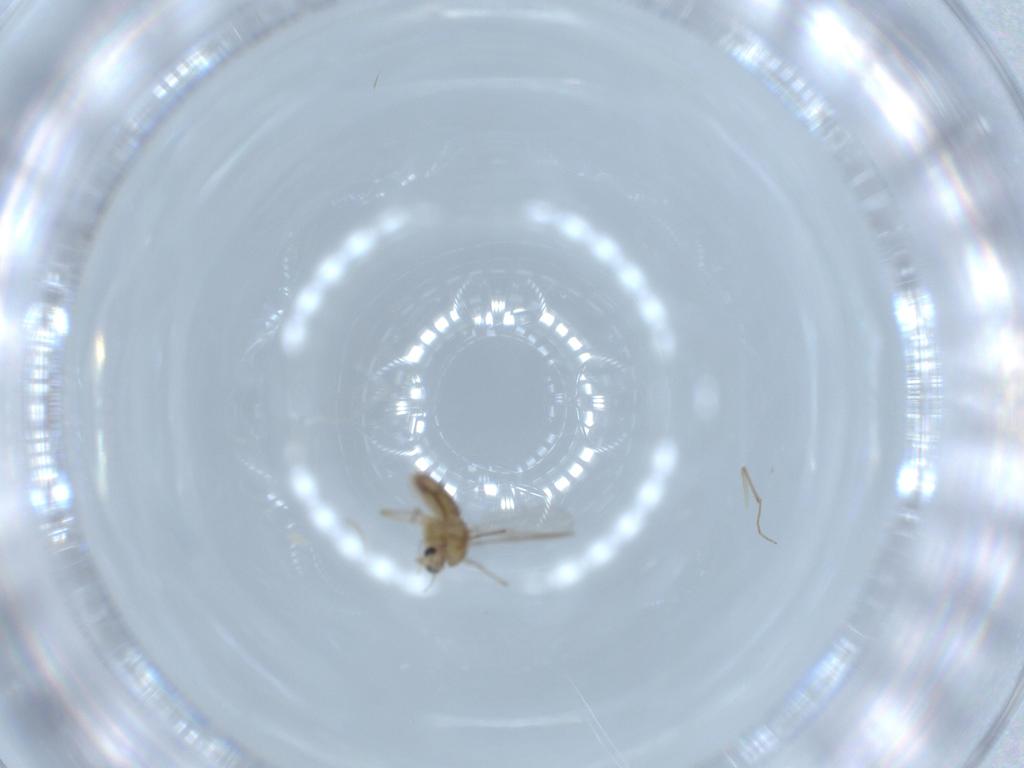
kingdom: Animalia
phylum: Arthropoda
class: Insecta
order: Diptera
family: Chironomidae
